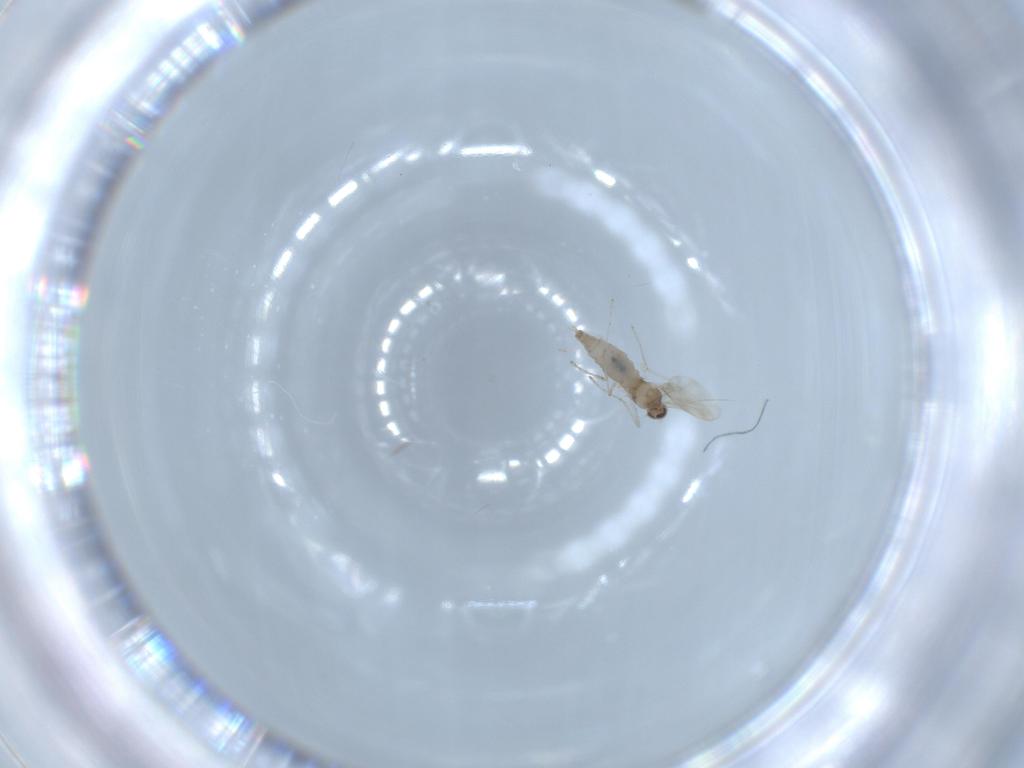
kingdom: Animalia
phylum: Arthropoda
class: Insecta
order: Diptera
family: Cecidomyiidae
